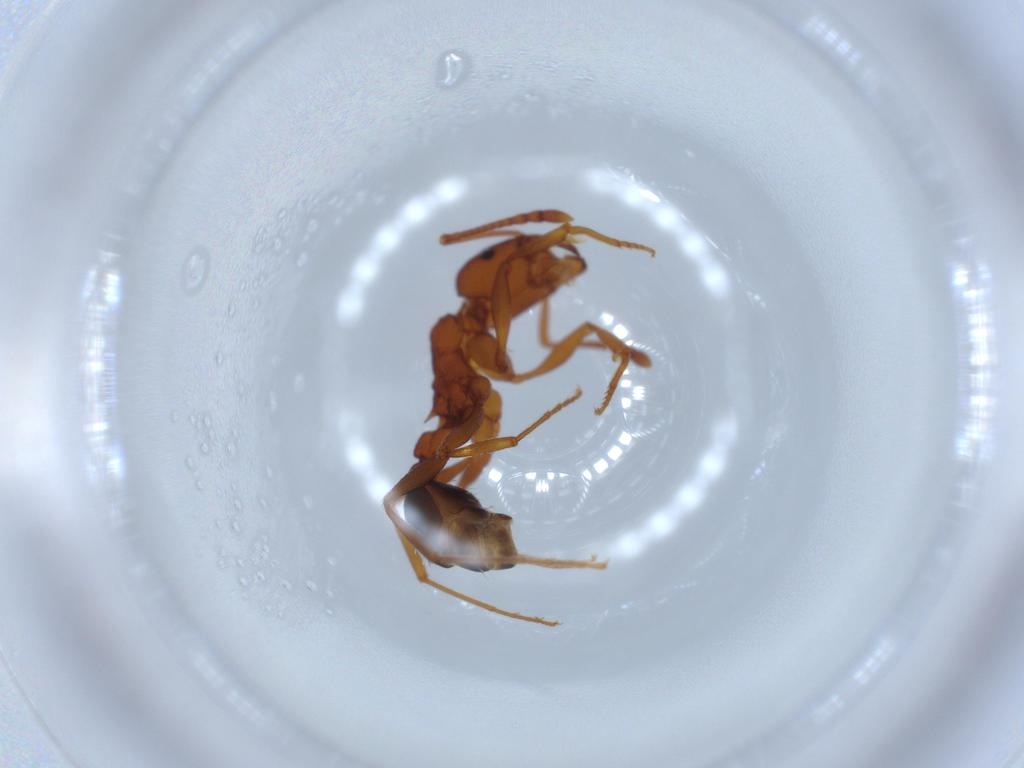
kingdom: Animalia
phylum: Arthropoda
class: Insecta
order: Hymenoptera
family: Formicidae
